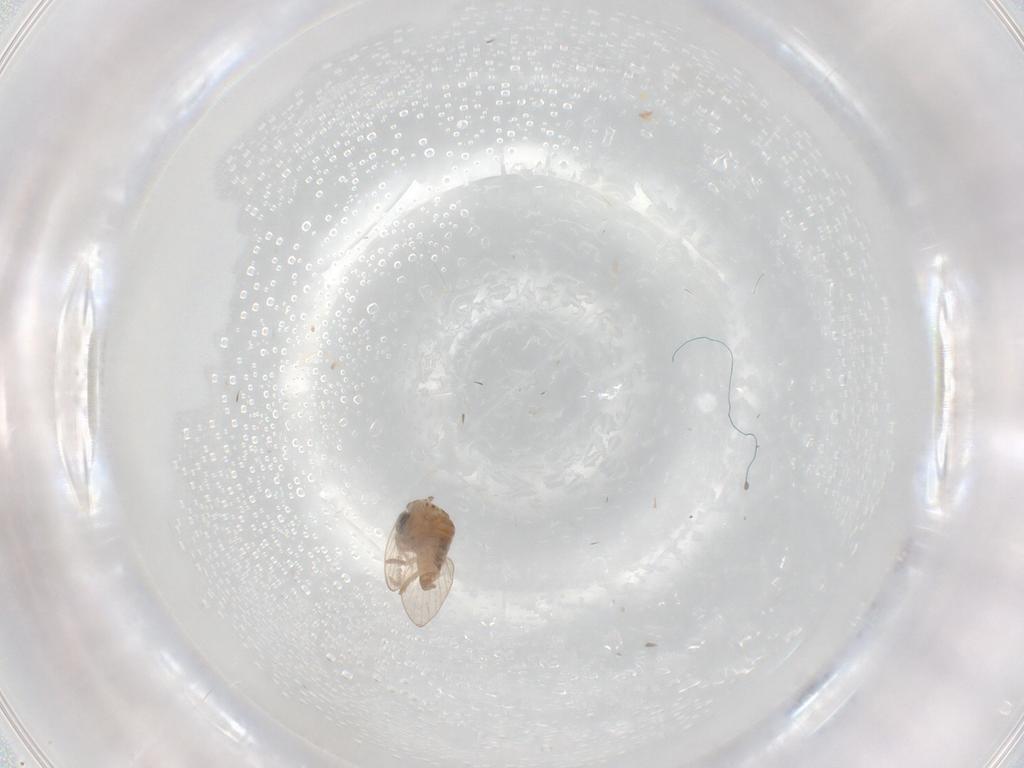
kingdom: Animalia
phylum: Arthropoda
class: Insecta
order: Diptera
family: Psychodidae
